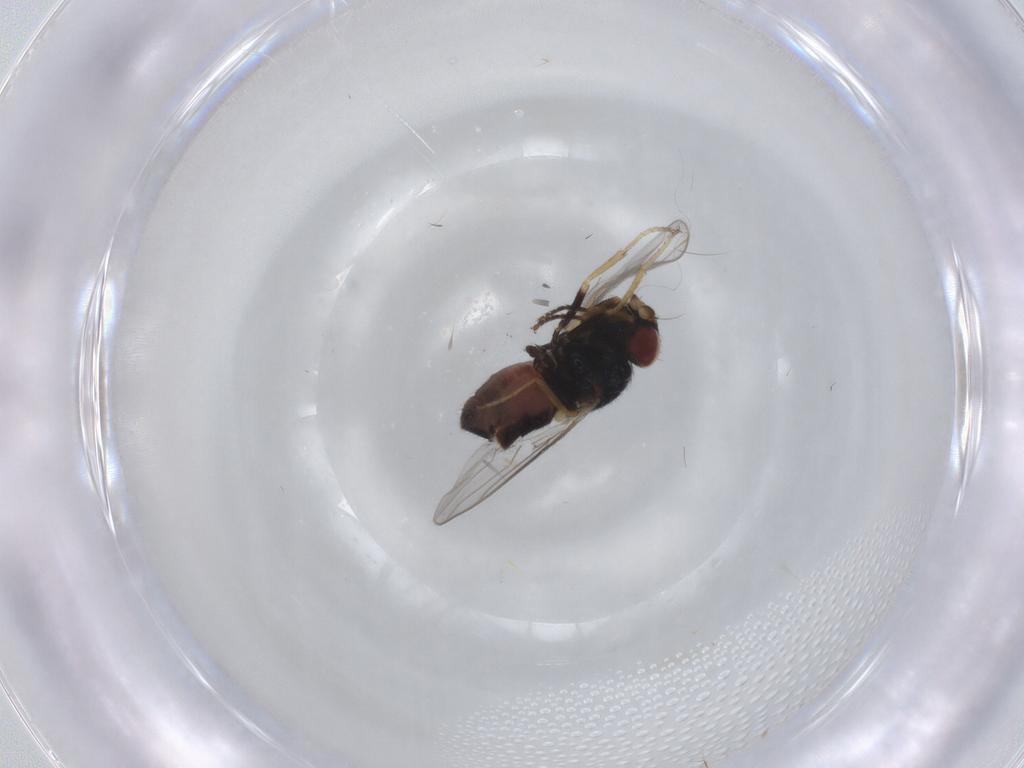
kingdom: Animalia
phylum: Arthropoda
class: Insecta
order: Diptera
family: Chloropidae
